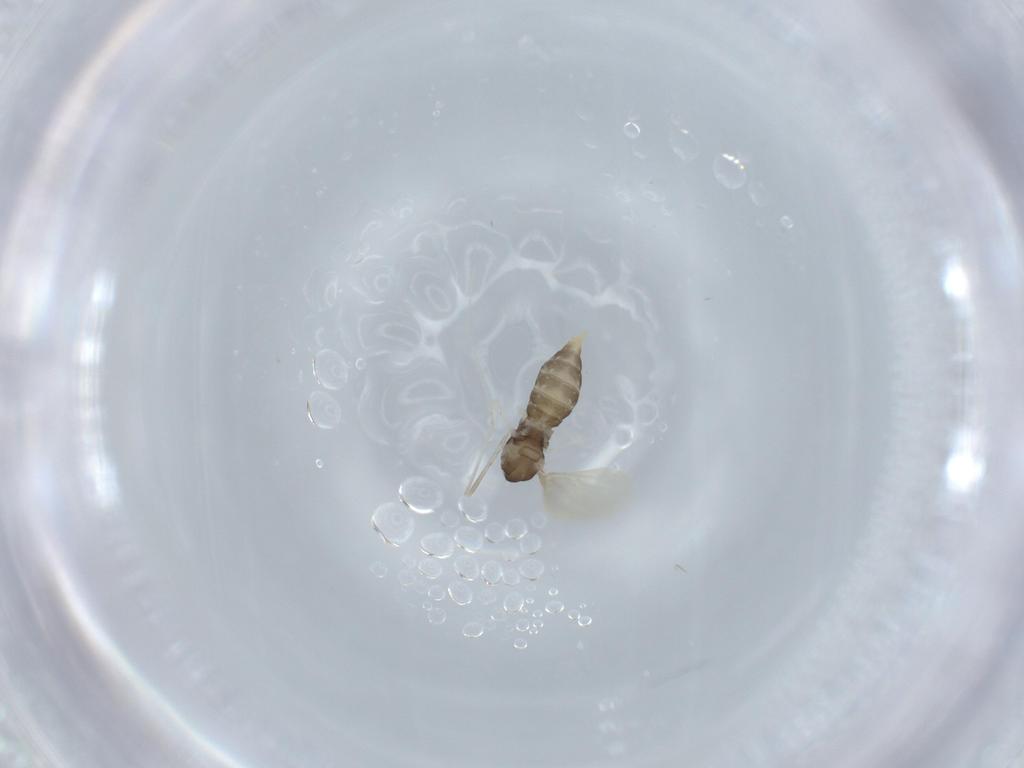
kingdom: Animalia
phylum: Arthropoda
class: Insecta
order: Diptera
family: Cecidomyiidae
